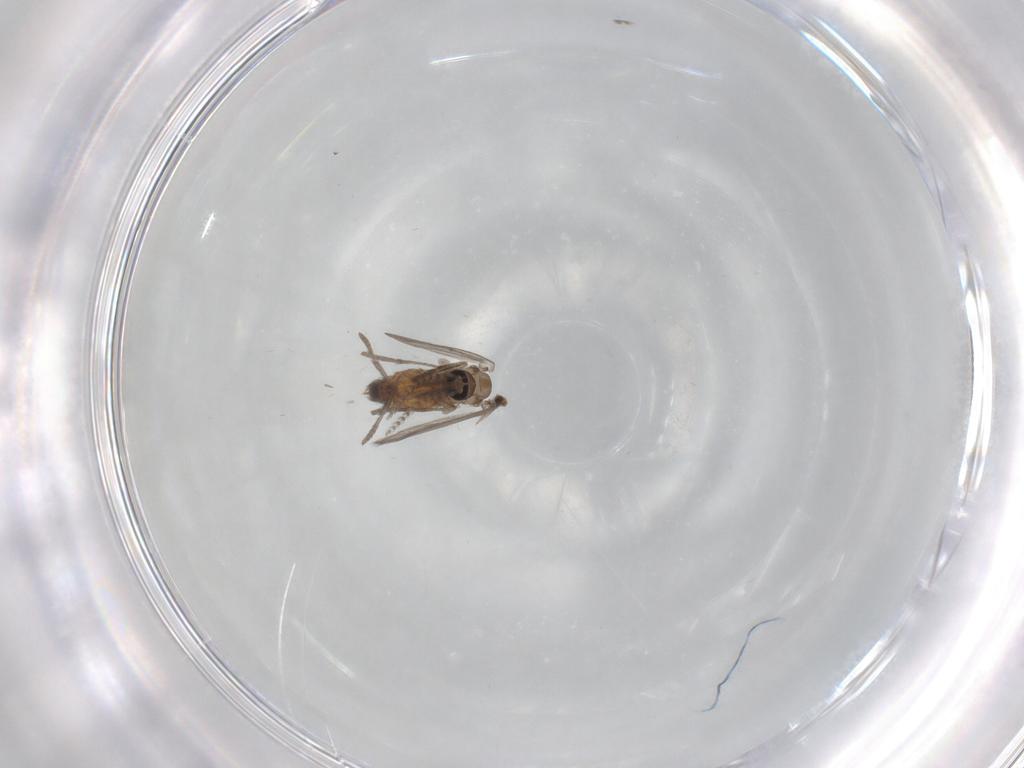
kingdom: Animalia
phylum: Arthropoda
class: Insecta
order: Diptera
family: Psychodidae
